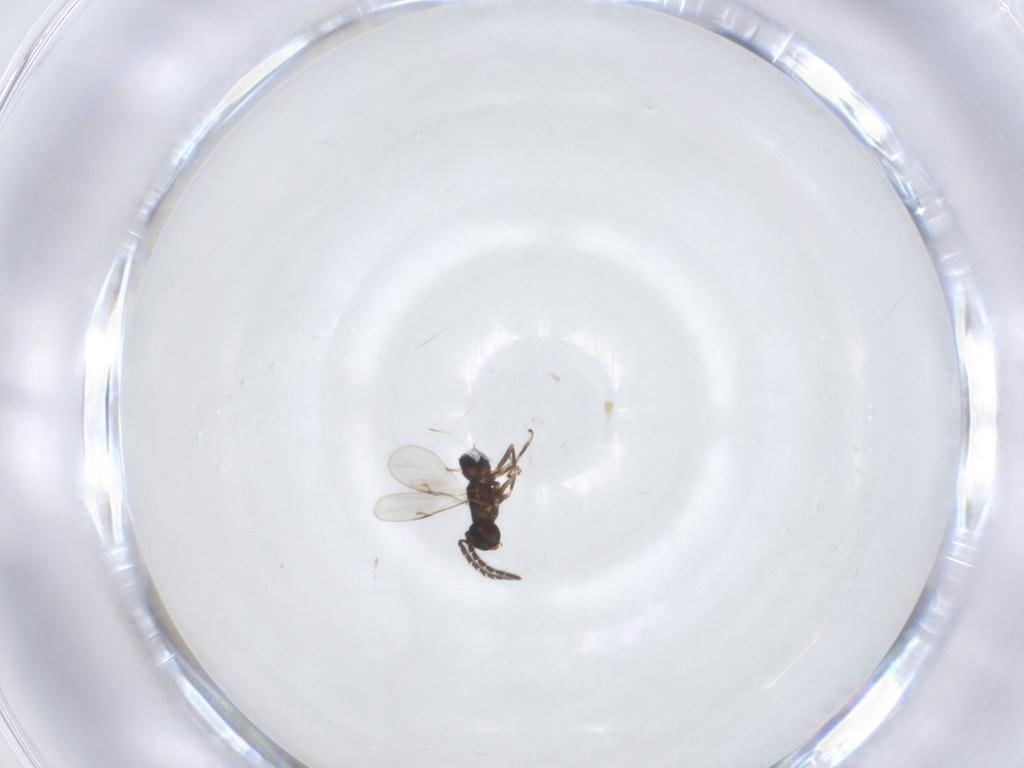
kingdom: Animalia
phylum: Arthropoda
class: Insecta
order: Hymenoptera
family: Encyrtidae
